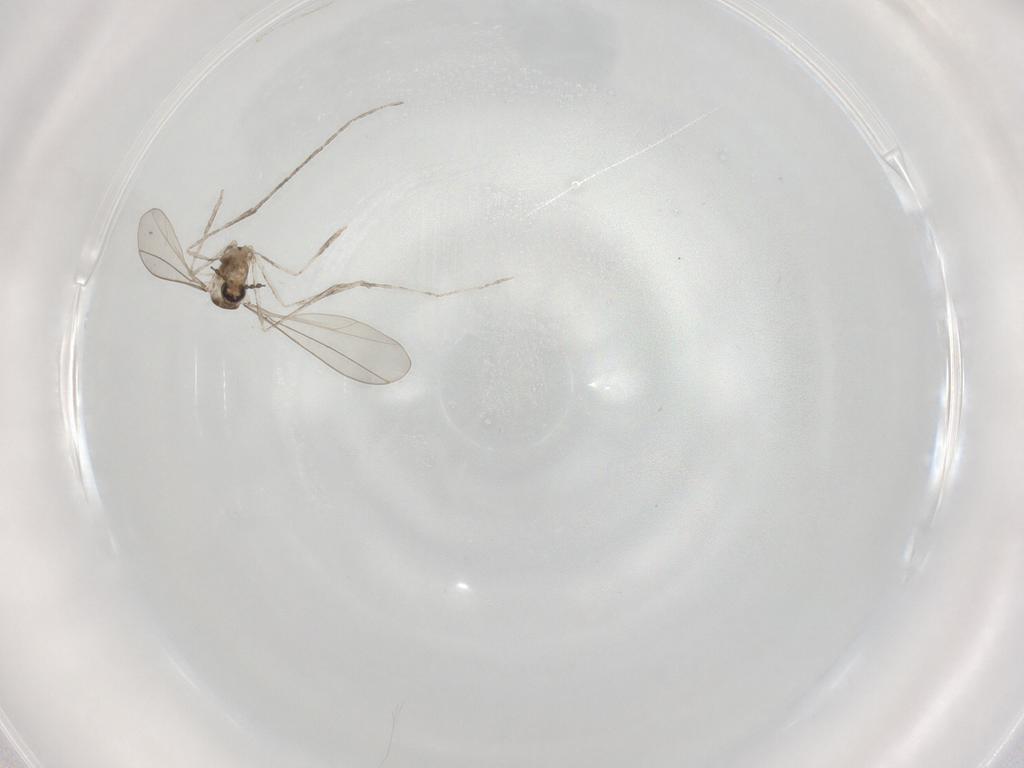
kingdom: Animalia
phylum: Arthropoda
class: Insecta
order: Diptera
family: Cecidomyiidae
